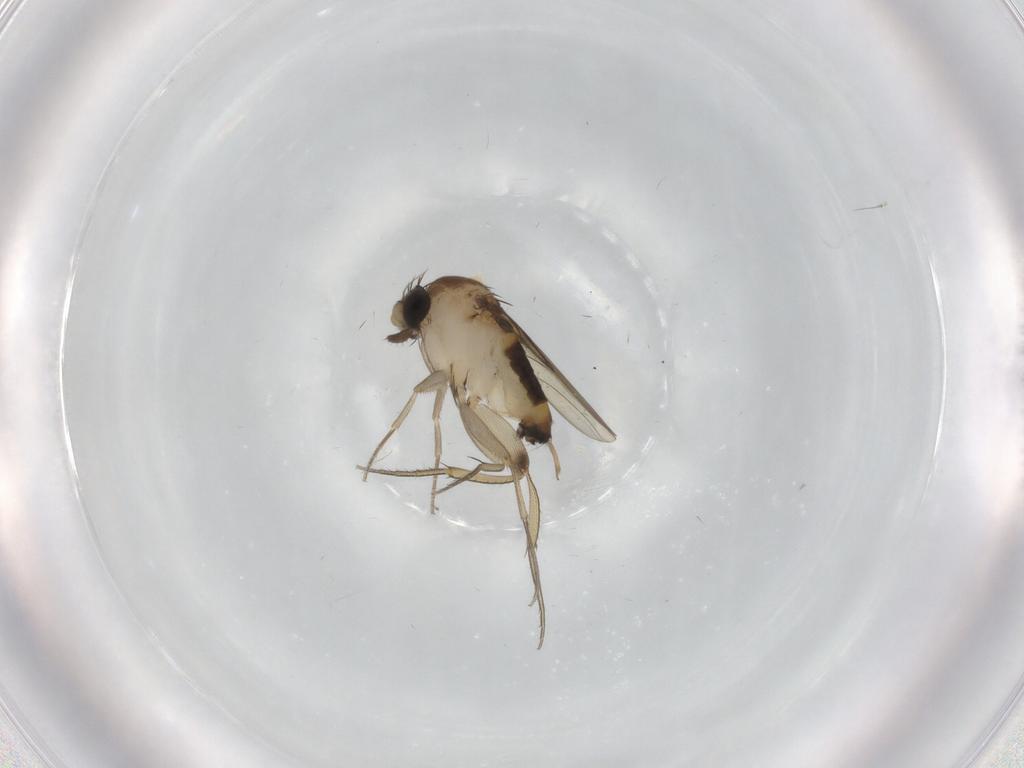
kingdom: Animalia
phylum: Arthropoda
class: Insecta
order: Diptera
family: Phoridae
